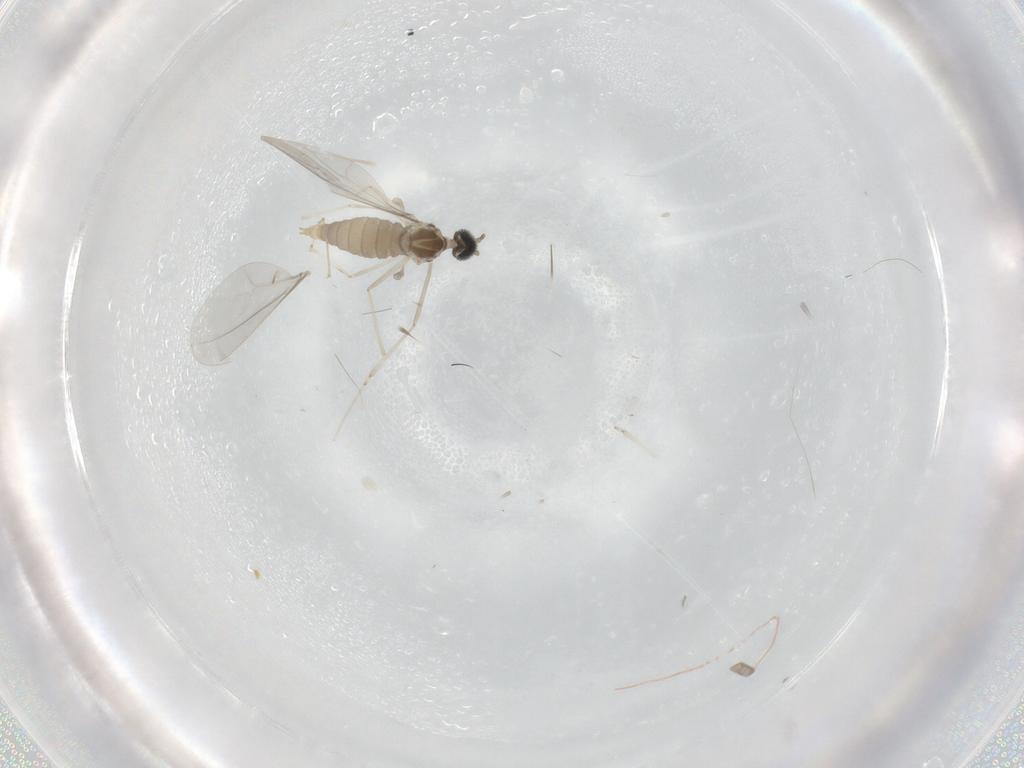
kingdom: Animalia
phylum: Arthropoda
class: Insecta
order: Diptera
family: Cecidomyiidae
